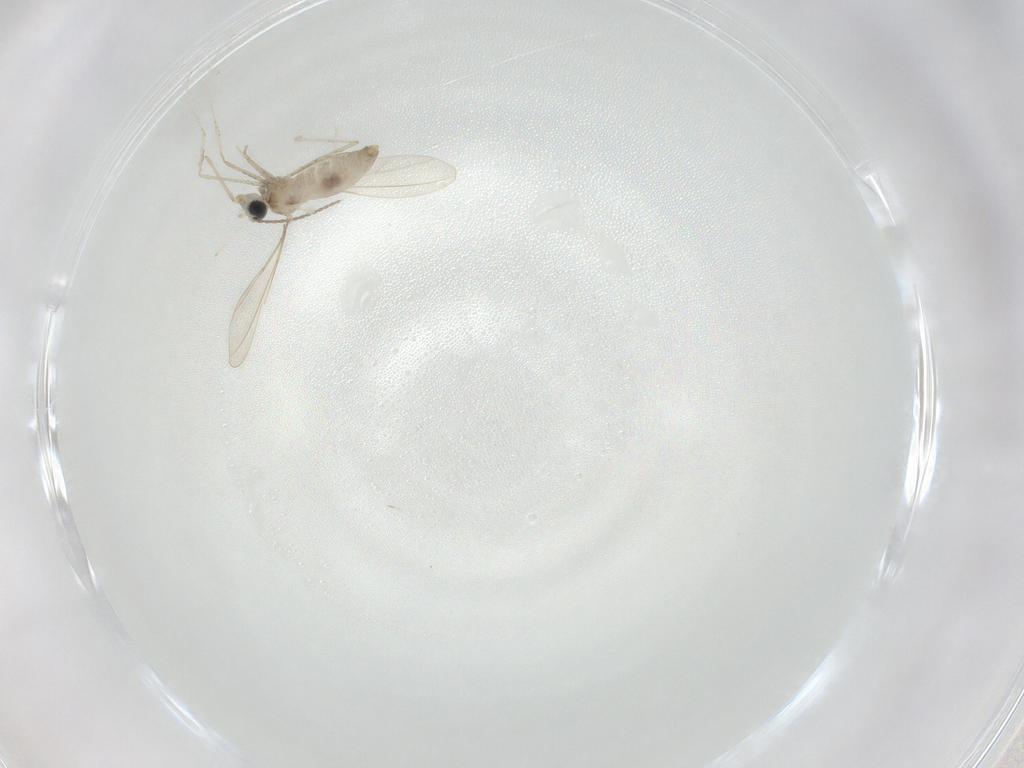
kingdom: Animalia
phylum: Arthropoda
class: Insecta
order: Diptera
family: Cecidomyiidae
